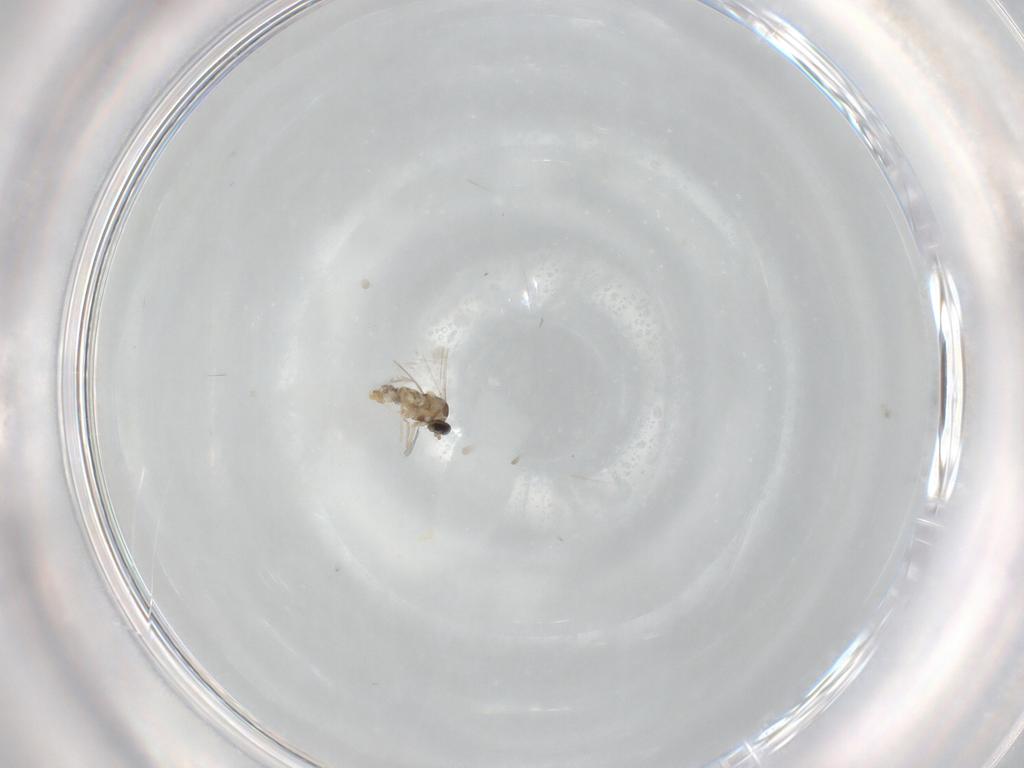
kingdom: Animalia
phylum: Arthropoda
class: Insecta
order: Diptera
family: Cecidomyiidae
